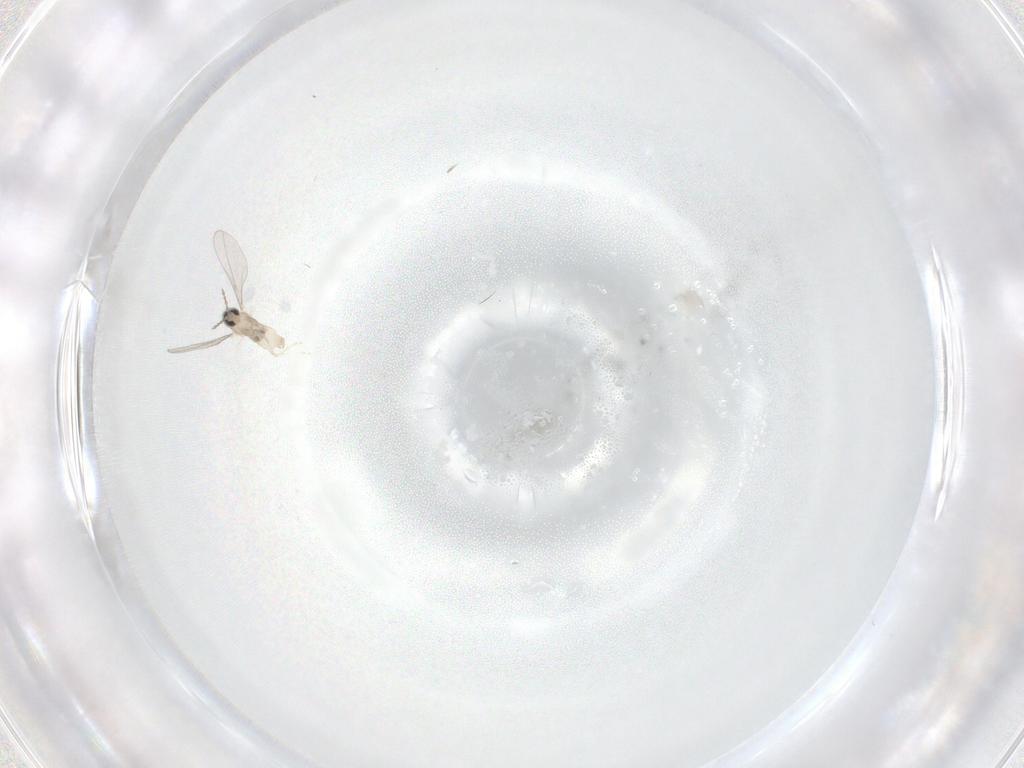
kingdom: Animalia
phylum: Arthropoda
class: Insecta
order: Diptera
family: Cecidomyiidae
